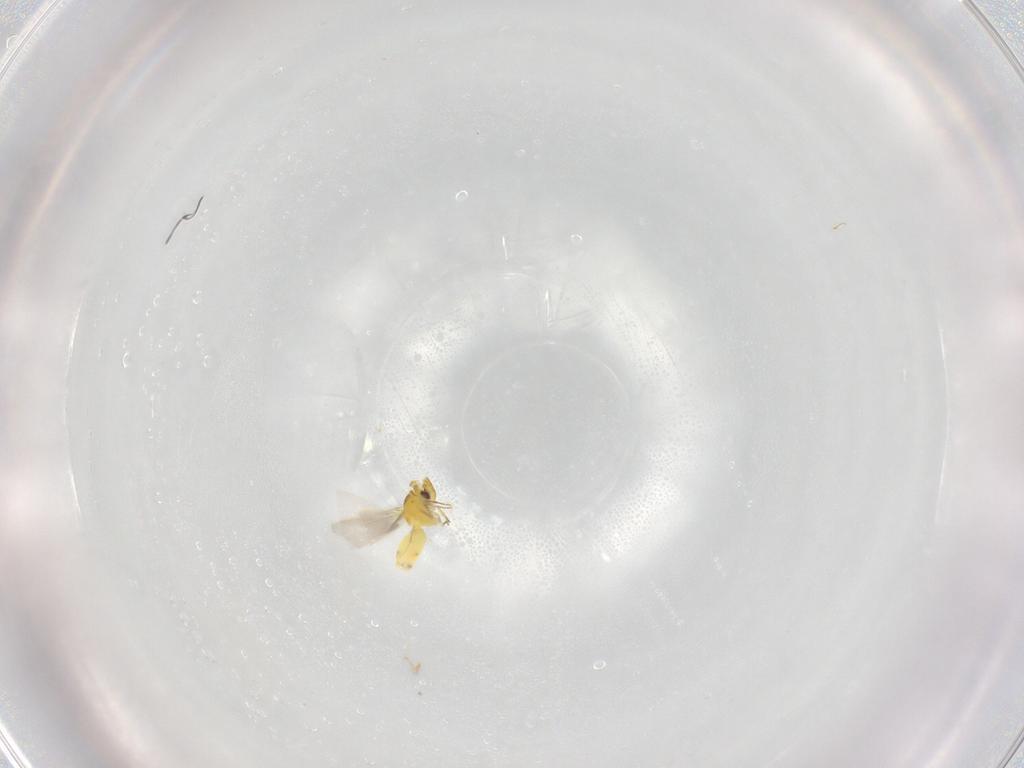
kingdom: Animalia
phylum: Arthropoda
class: Insecta
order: Hemiptera
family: Aleyrodidae
